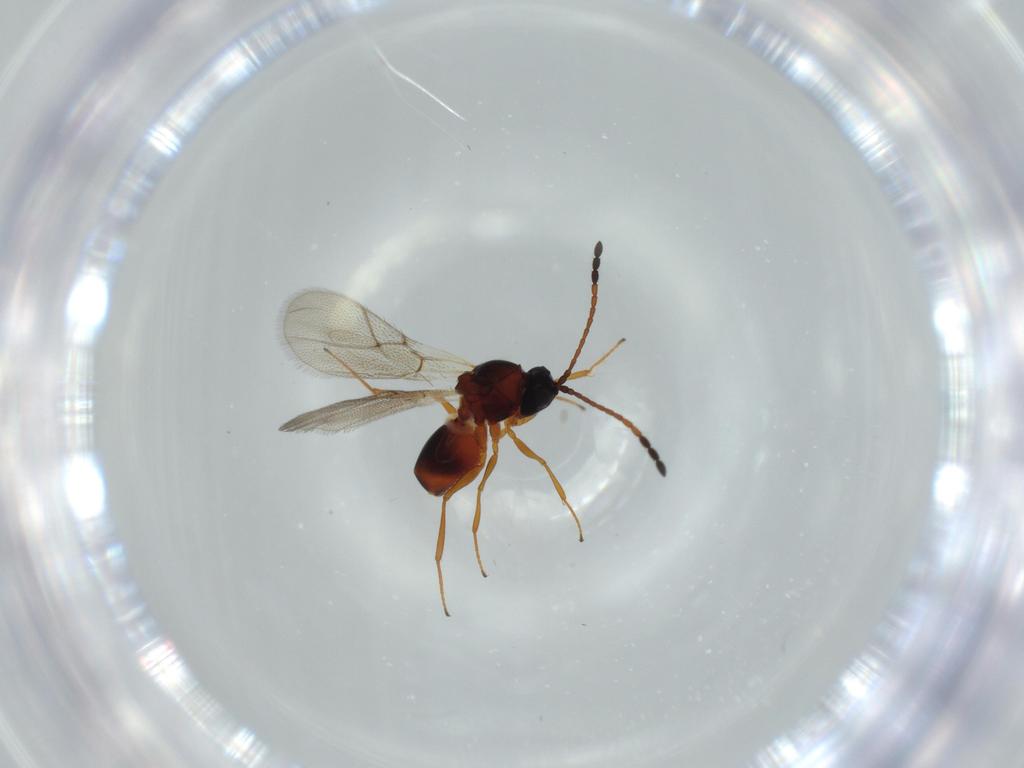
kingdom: Animalia
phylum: Arthropoda
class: Insecta
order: Hymenoptera
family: Figitidae
